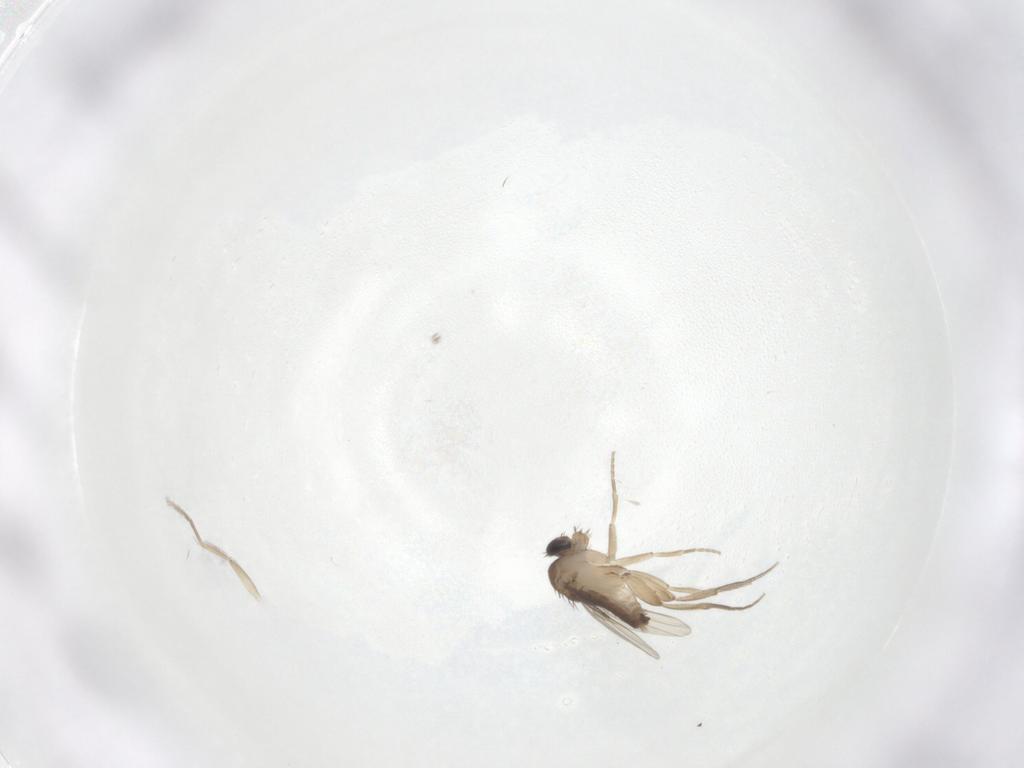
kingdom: Animalia
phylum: Arthropoda
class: Insecta
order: Diptera
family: Phoridae
